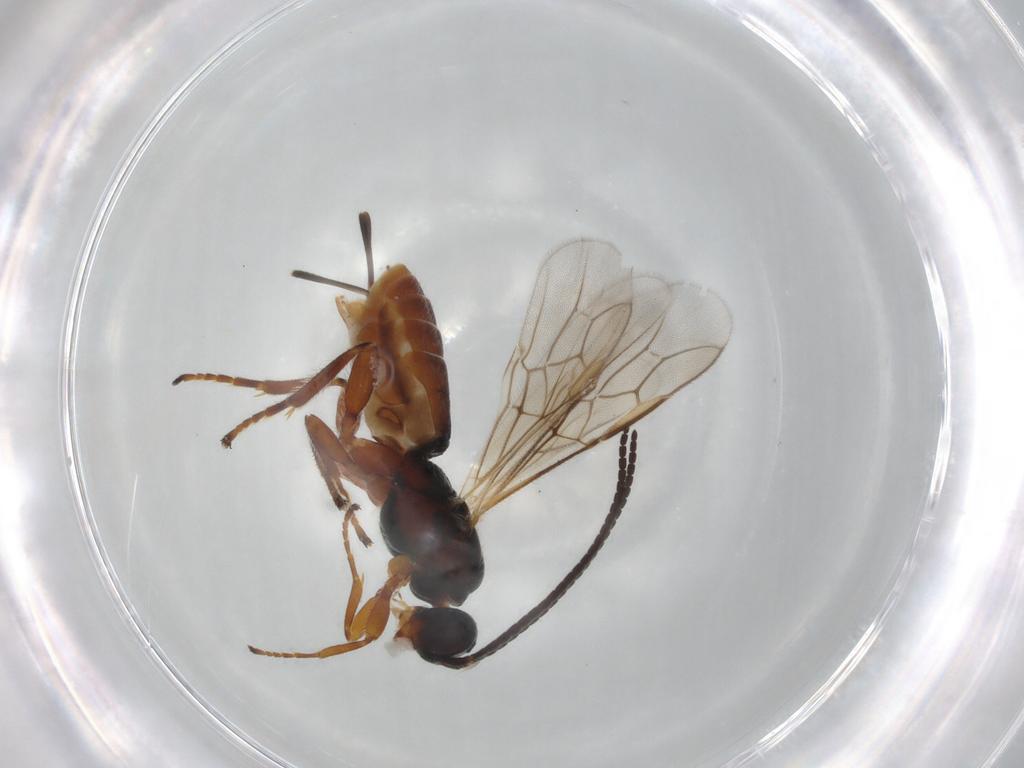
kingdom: Animalia
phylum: Arthropoda
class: Insecta
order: Hymenoptera
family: Braconidae
